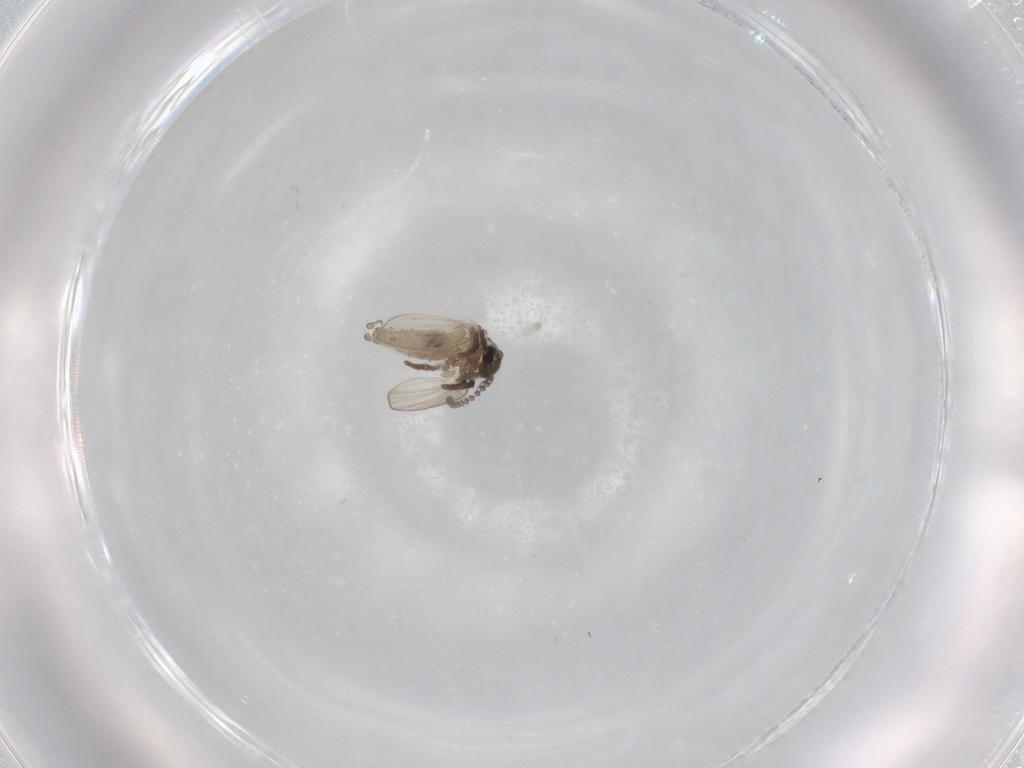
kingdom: Animalia
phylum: Arthropoda
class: Insecta
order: Diptera
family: Psychodidae
